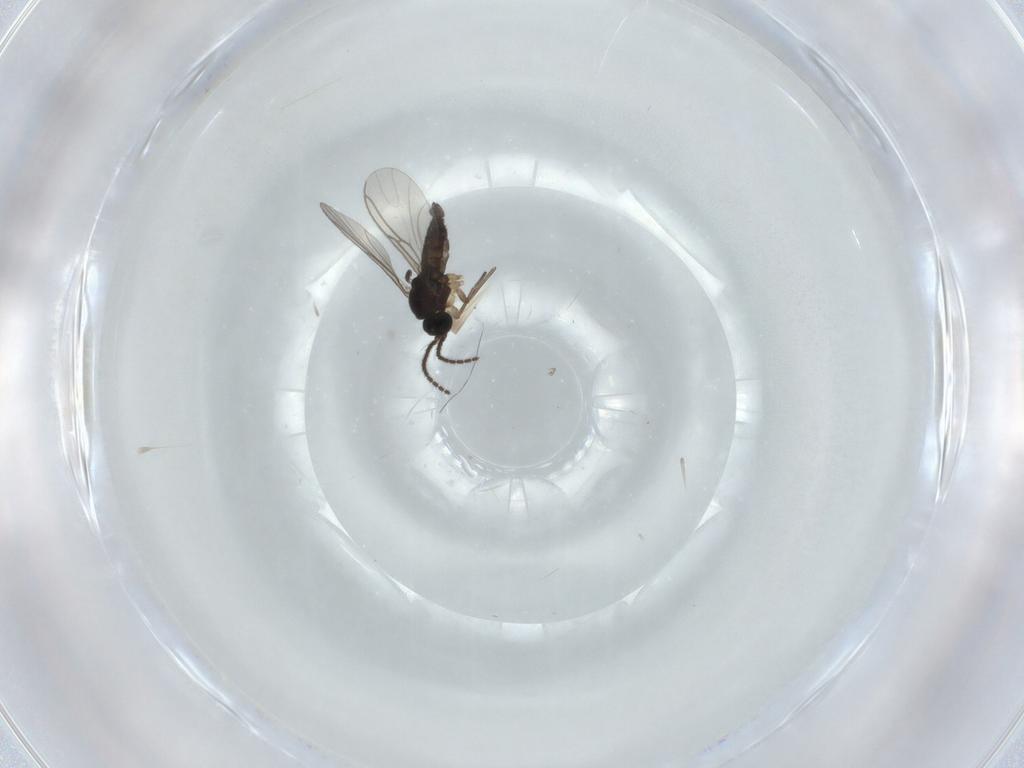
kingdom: Animalia
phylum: Arthropoda
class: Insecta
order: Diptera
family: Sciaridae
